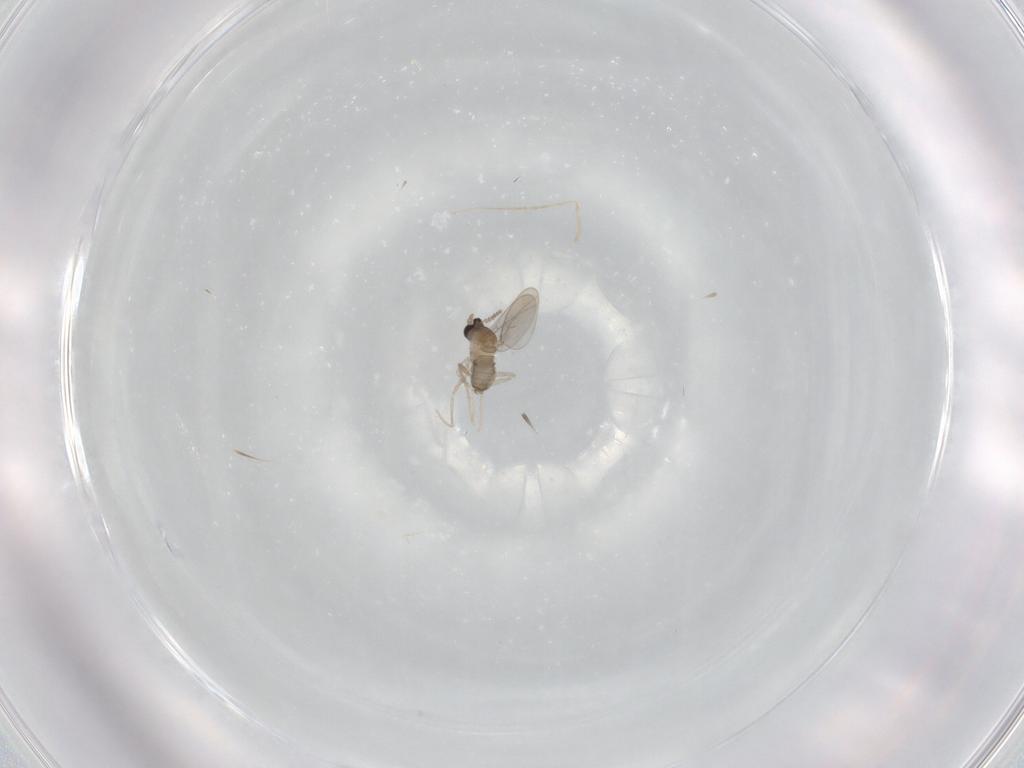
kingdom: Animalia
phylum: Arthropoda
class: Insecta
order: Diptera
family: Cecidomyiidae
